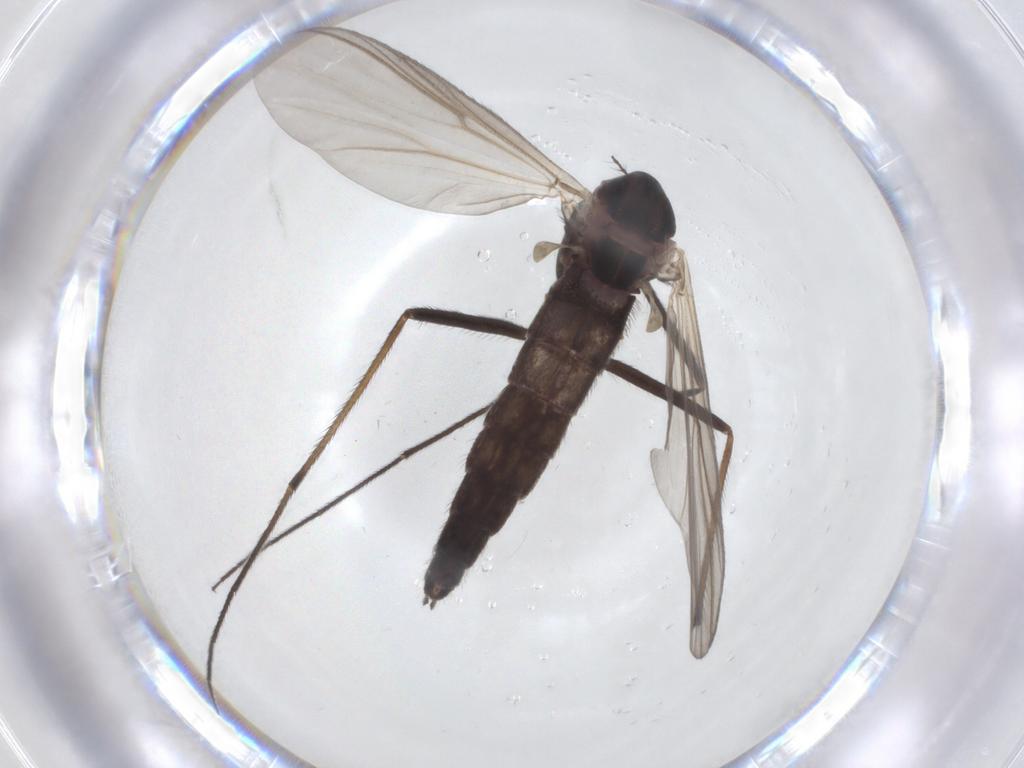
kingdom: Animalia
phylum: Arthropoda
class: Insecta
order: Diptera
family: Chironomidae
